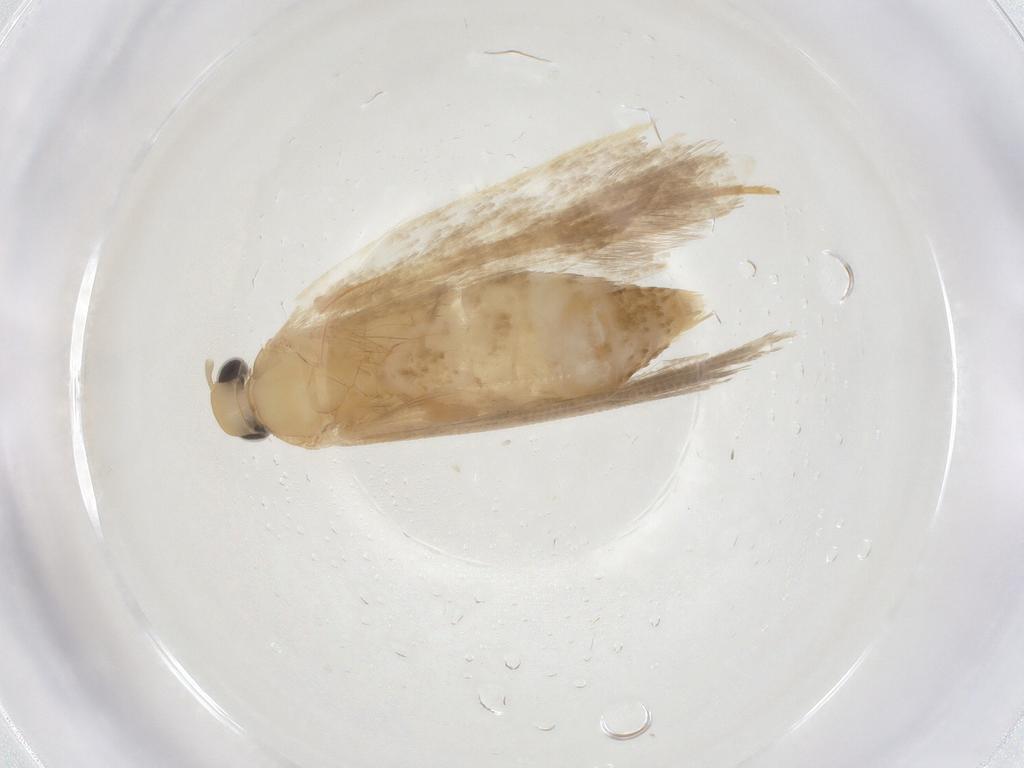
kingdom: Animalia
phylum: Arthropoda
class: Insecta
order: Lepidoptera
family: Gelechiidae
